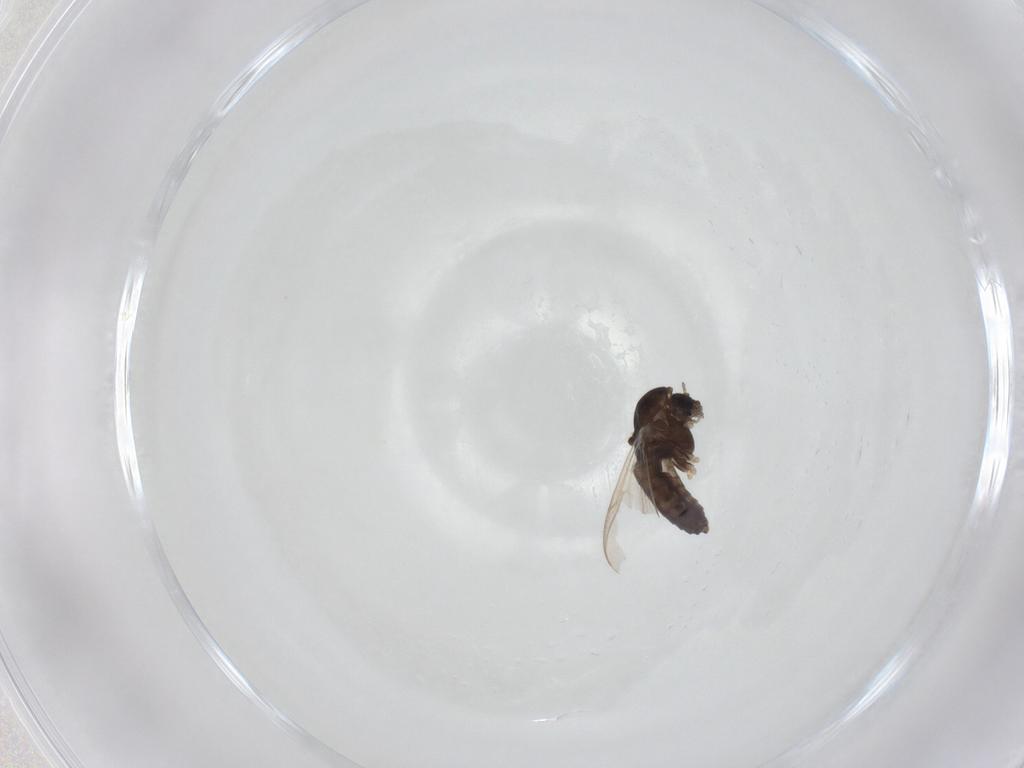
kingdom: Animalia
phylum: Arthropoda
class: Insecta
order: Diptera
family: Chironomidae
